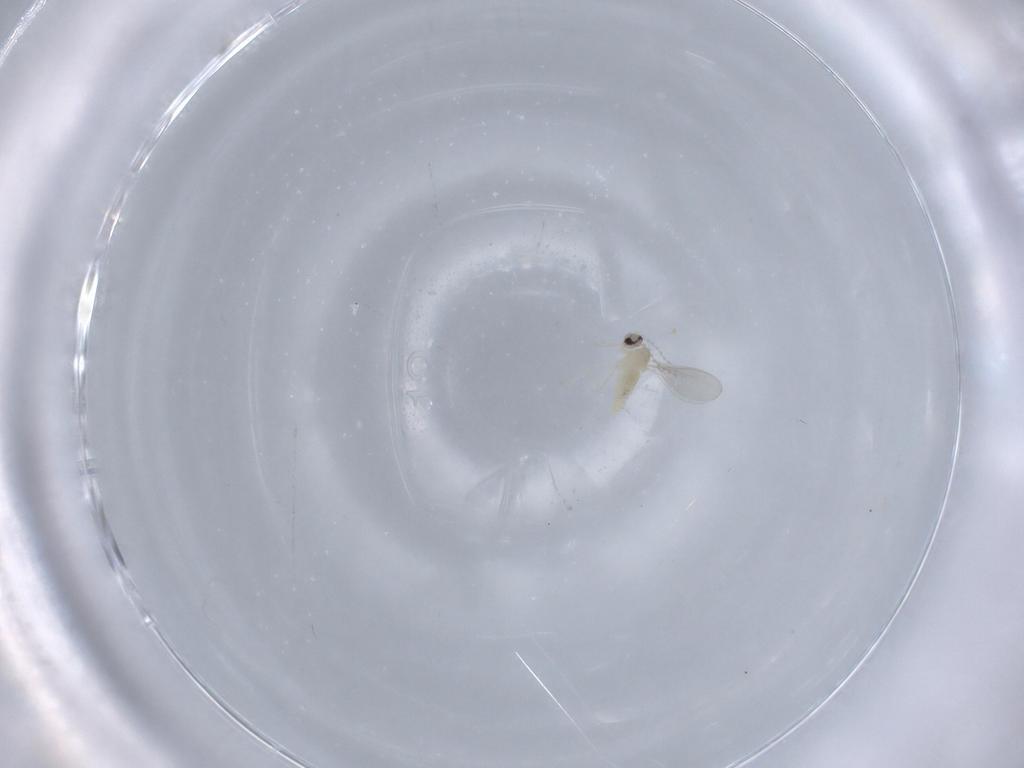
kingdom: Animalia
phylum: Arthropoda
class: Insecta
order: Diptera
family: Cecidomyiidae
